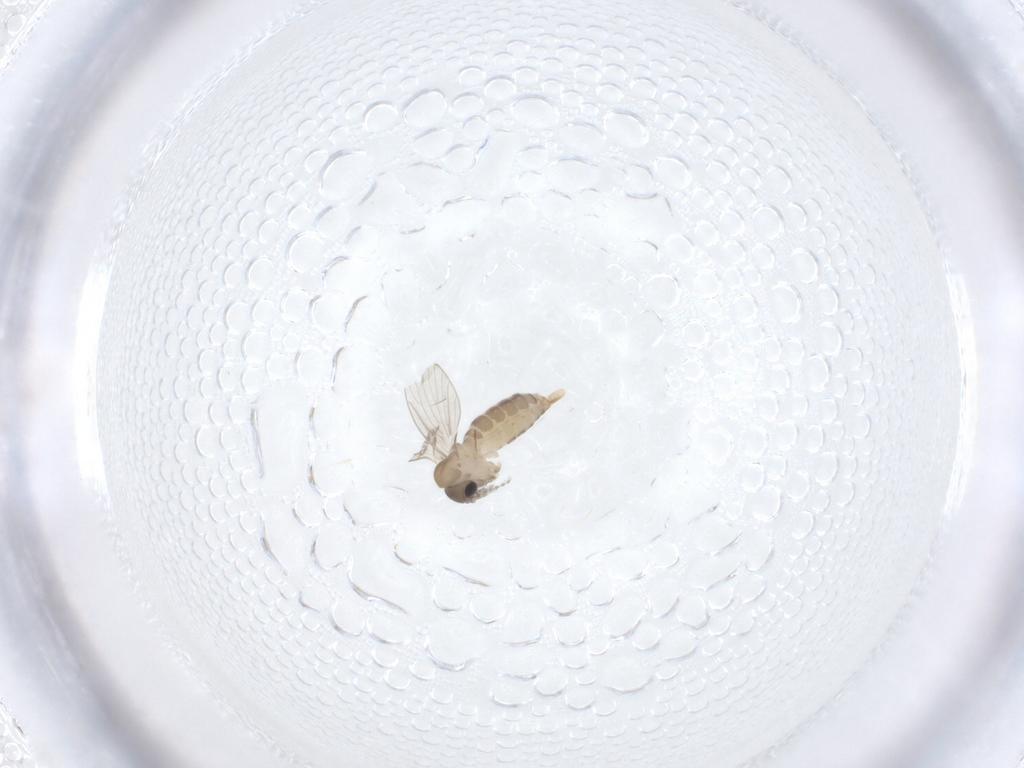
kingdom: Animalia
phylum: Arthropoda
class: Insecta
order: Diptera
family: Psychodidae
